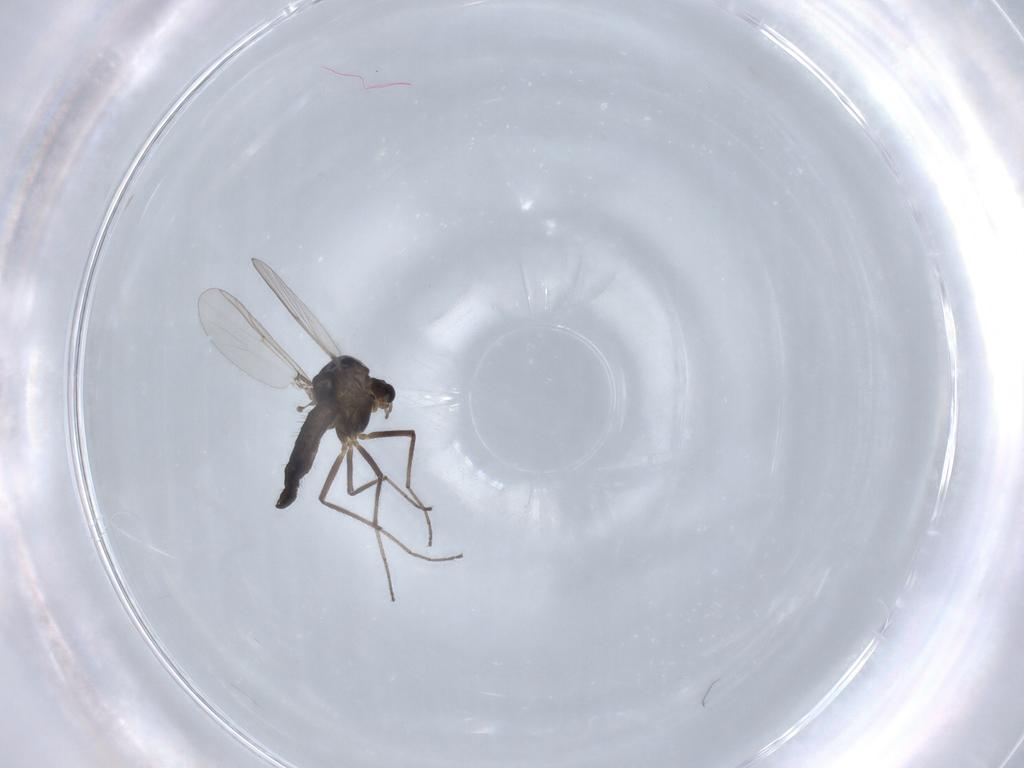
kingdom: Animalia
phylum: Arthropoda
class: Insecta
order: Diptera
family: Chironomidae
